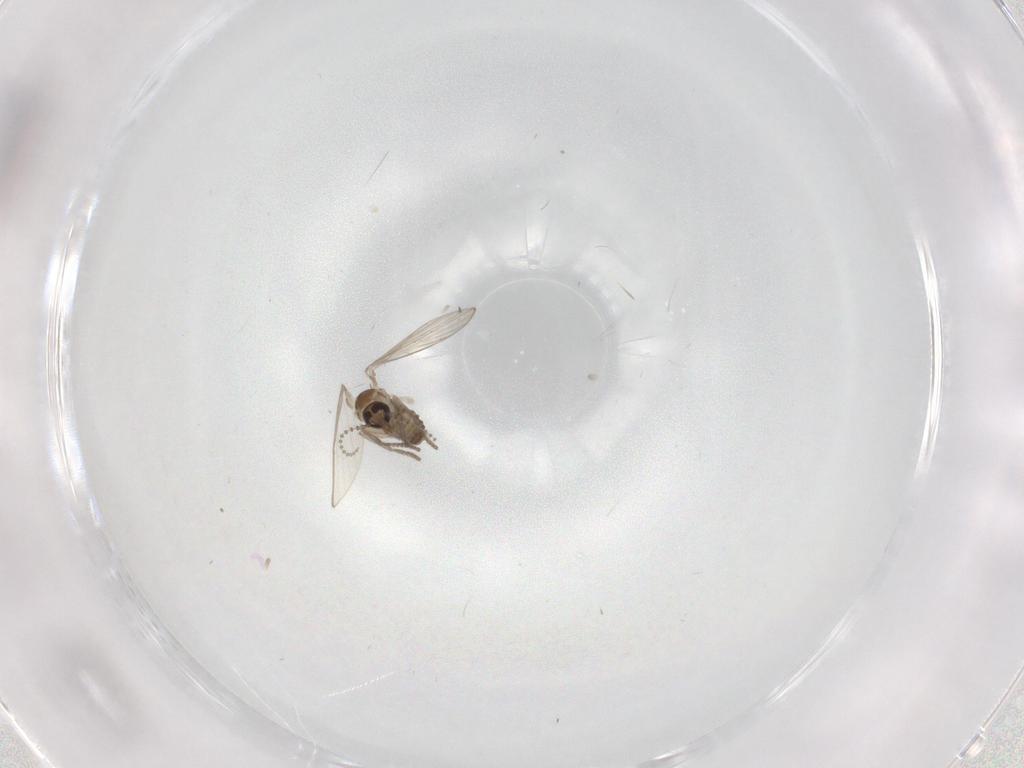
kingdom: Animalia
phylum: Arthropoda
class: Insecta
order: Diptera
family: Psychodidae
